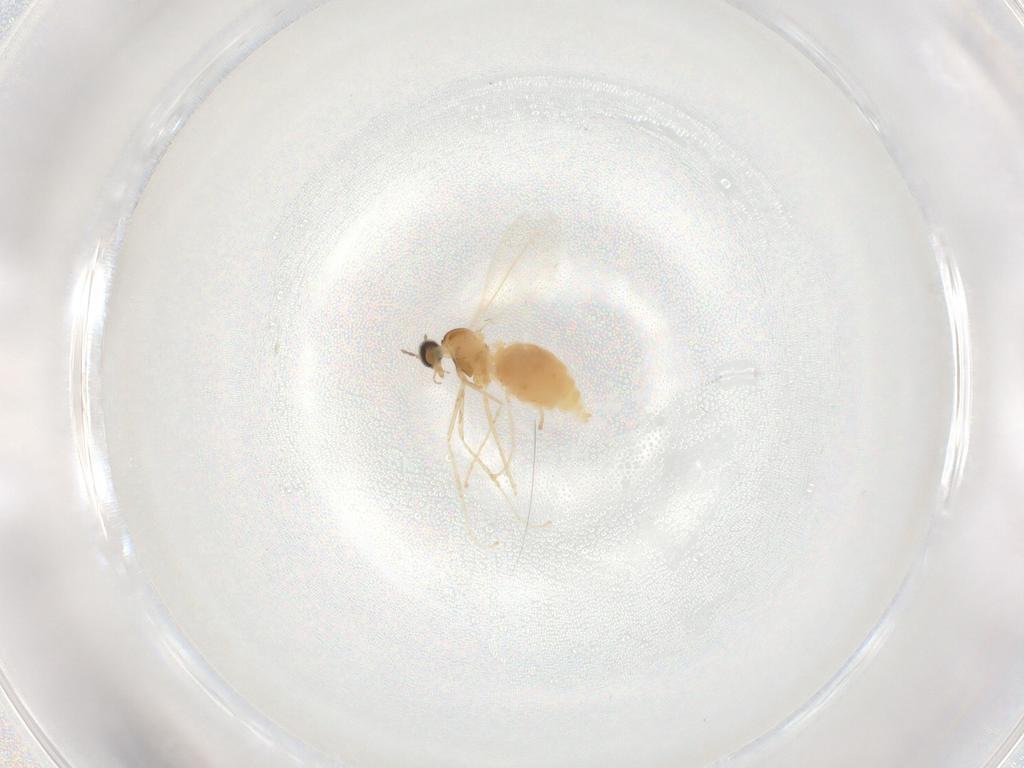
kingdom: Animalia
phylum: Arthropoda
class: Insecta
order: Diptera
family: Cecidomyiidae
